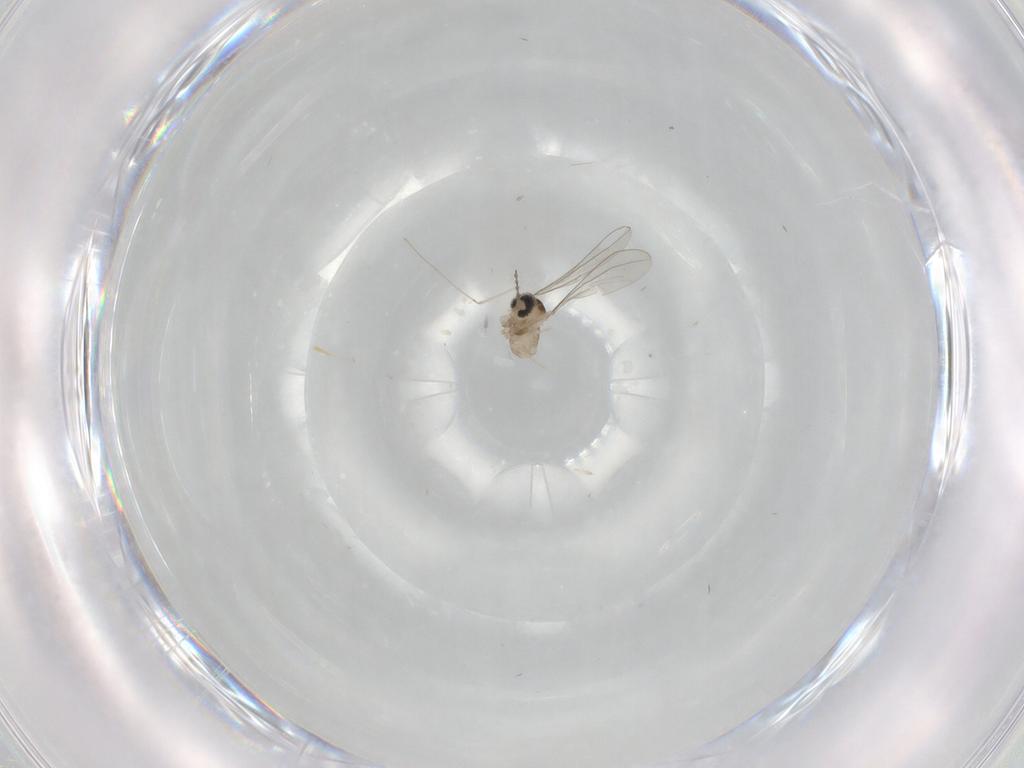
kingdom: Animalia
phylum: Arthropoda
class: Insecta
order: Diptera
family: Cecidomyiidae
